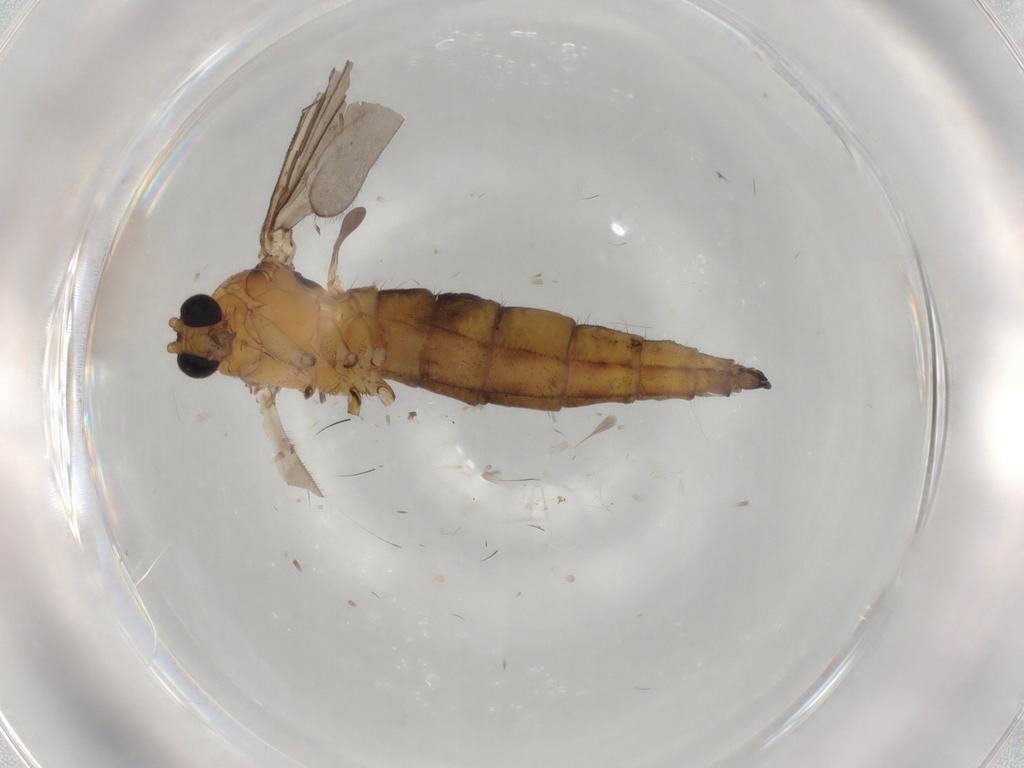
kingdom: Animalia
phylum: Arthropoda
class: Insecta
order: Diptera
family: Sciaridae
